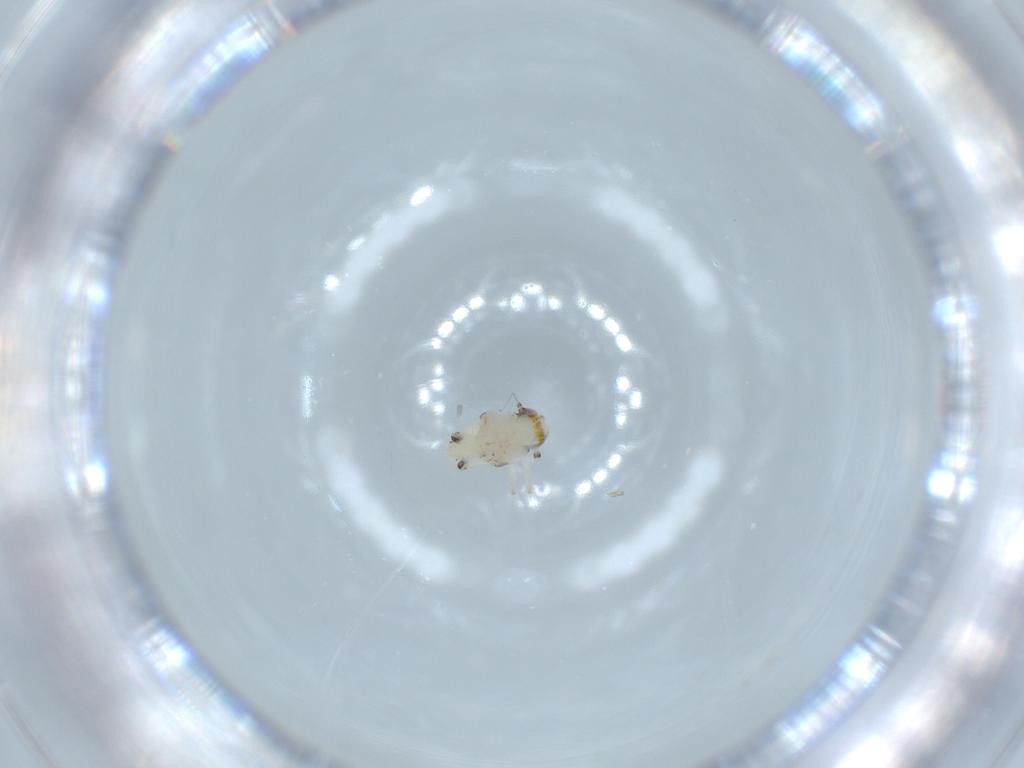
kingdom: Animalia
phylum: Arthropoda
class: Insecta
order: Hemiptera
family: Nogodinidae
